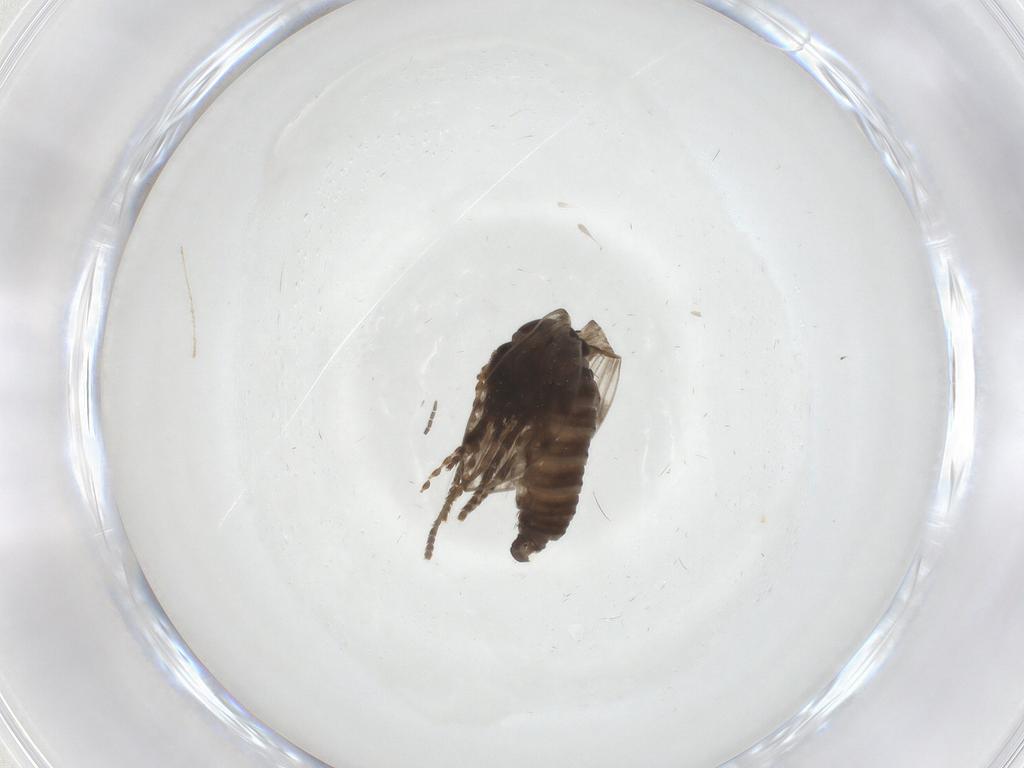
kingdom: Animalia
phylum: Arthropoda
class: Insecta
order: Diptera
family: Psychodidae
